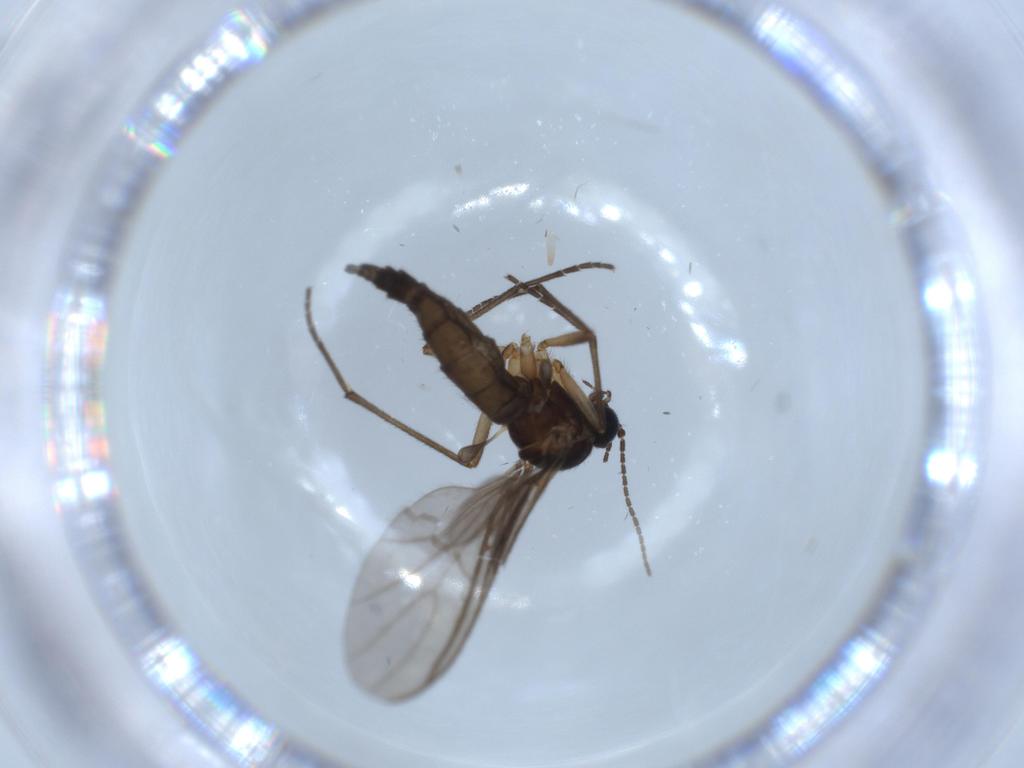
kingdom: Animalia
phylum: Arthropoda
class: Insecta
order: Diptera
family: Sciaridae
